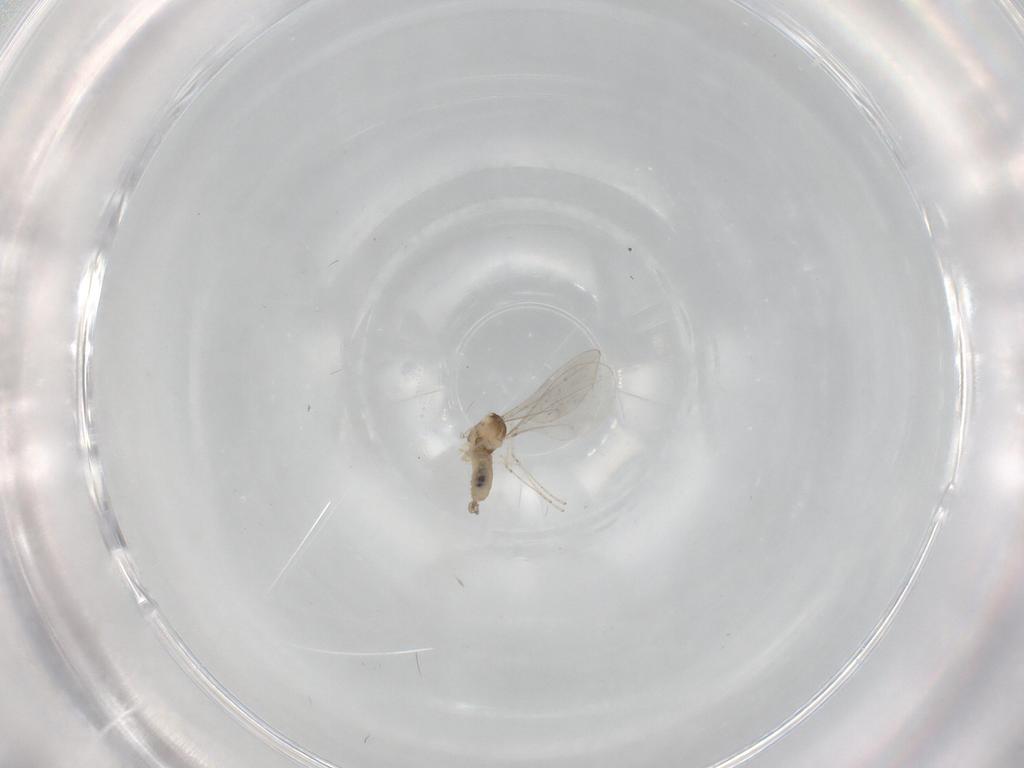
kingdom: Animalia
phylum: Arthropoda
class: Insecta
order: Diptera
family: Cecidomyiidae
